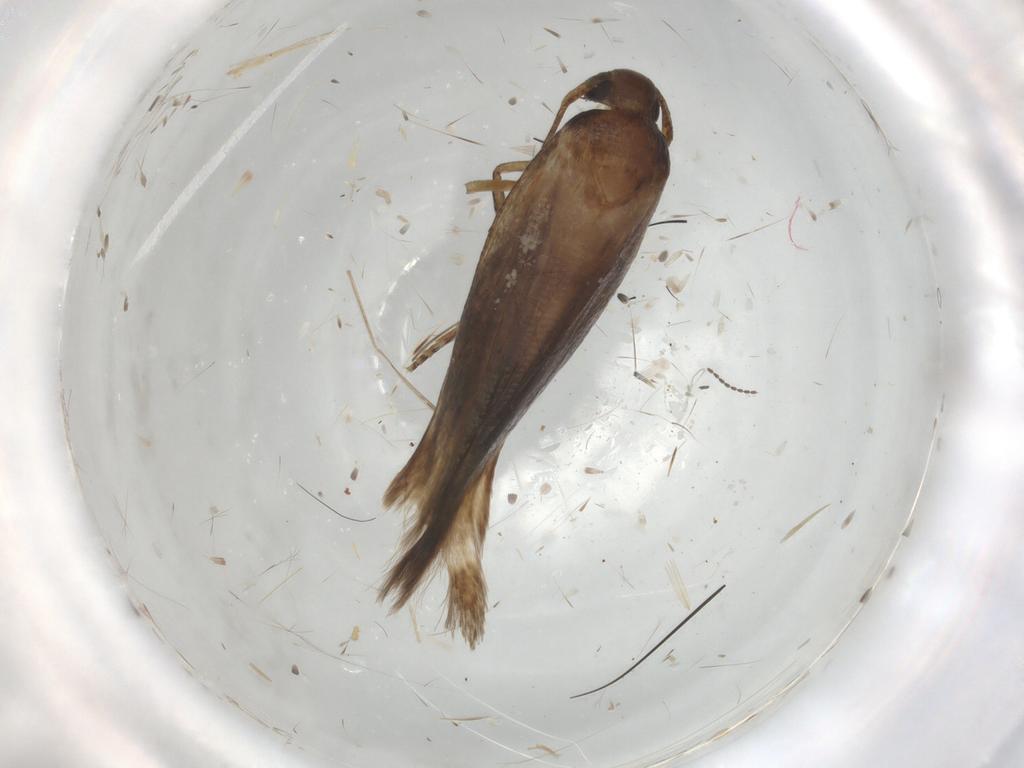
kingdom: Animalia
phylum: Arthropoda
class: Insecta
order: Lepidoptera
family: Cosmopterigidae
